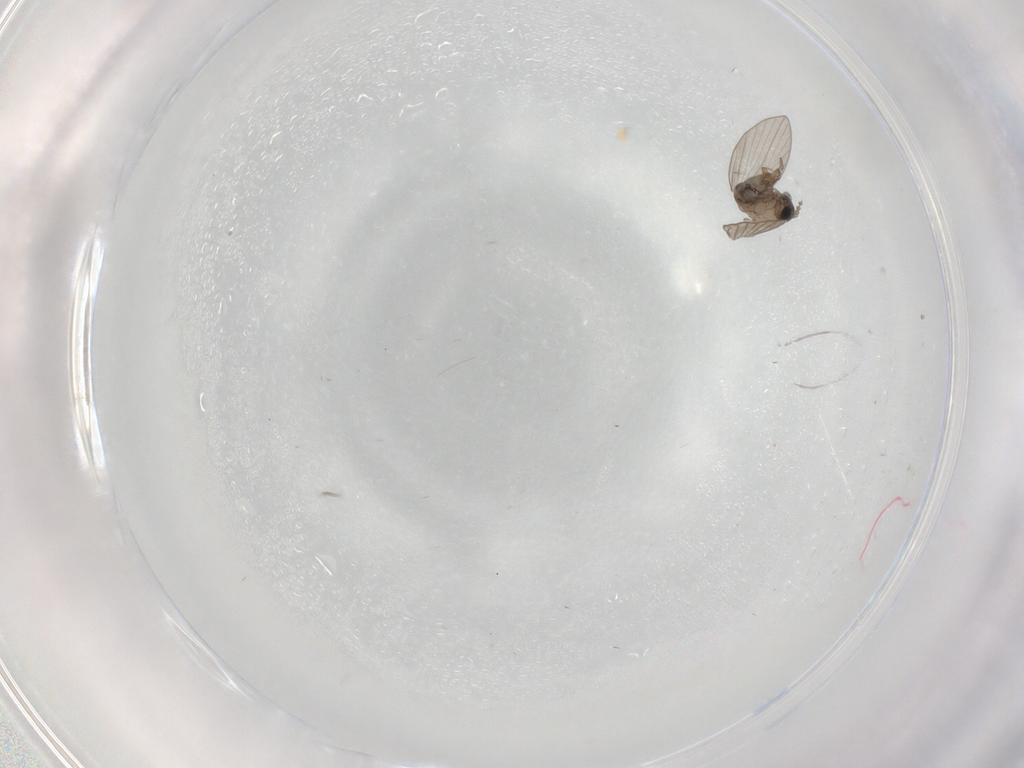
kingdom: Animalia
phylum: Arthropoda
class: Insecta
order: Diptera
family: Psychodidae
